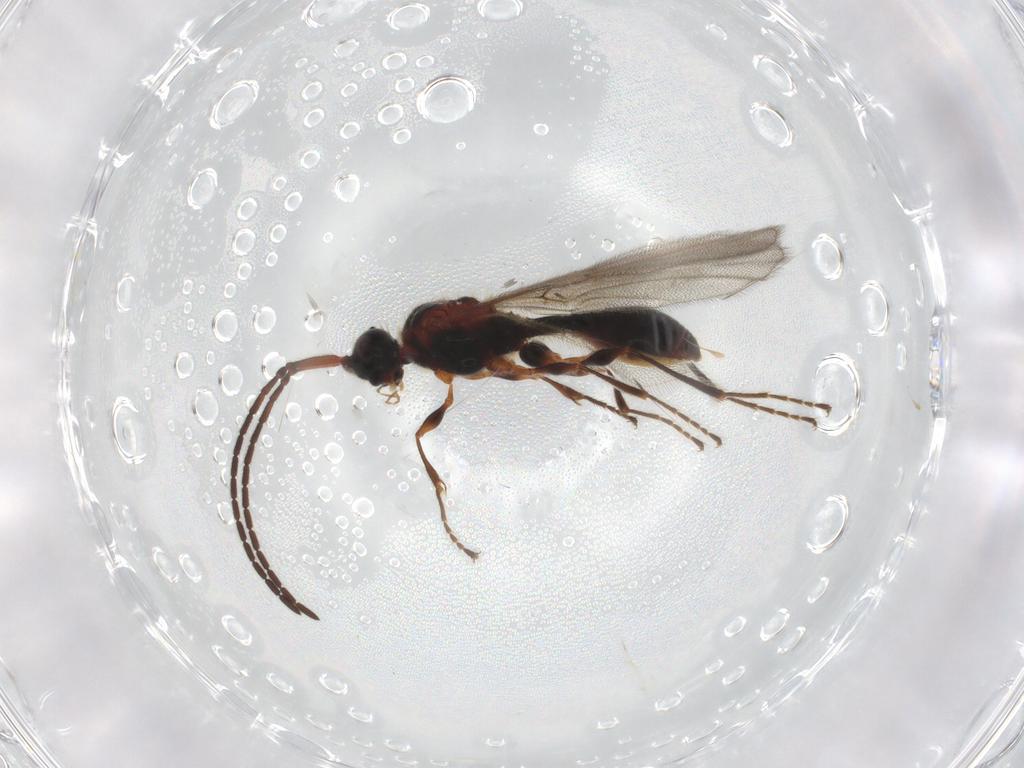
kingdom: Animalia
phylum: Arthropoda
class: Insecta
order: Hymenoptera
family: Diapriidae
